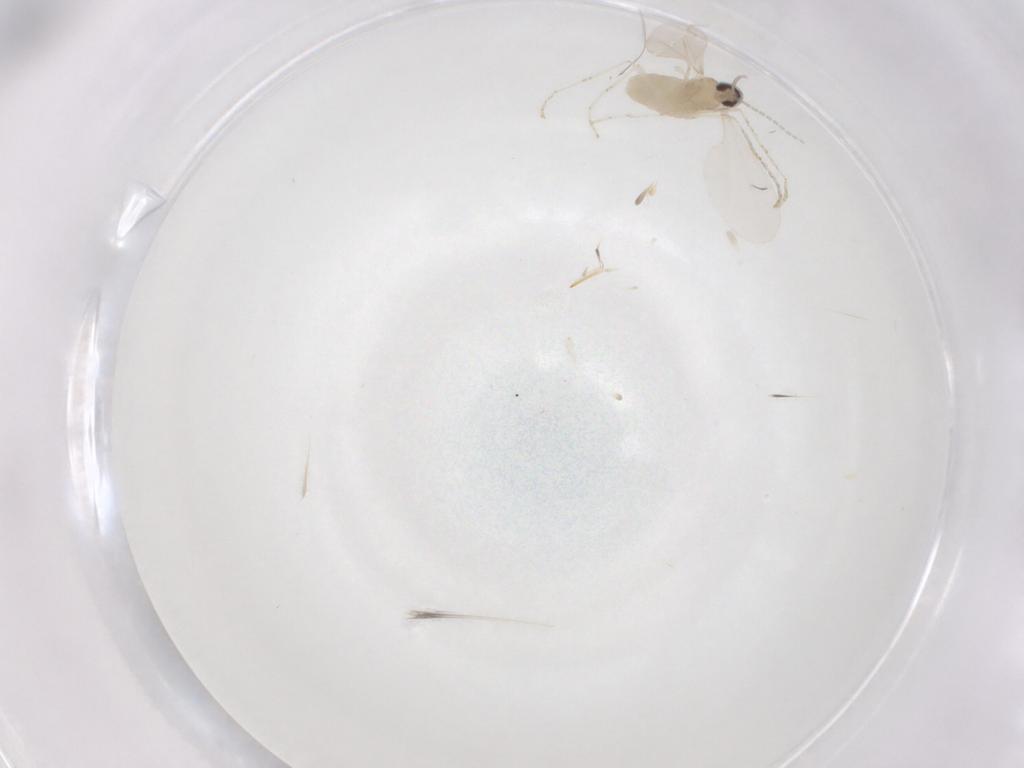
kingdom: Animalia
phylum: Arthropoda
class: Insecta
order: Diptera
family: Cecidomyiidae
